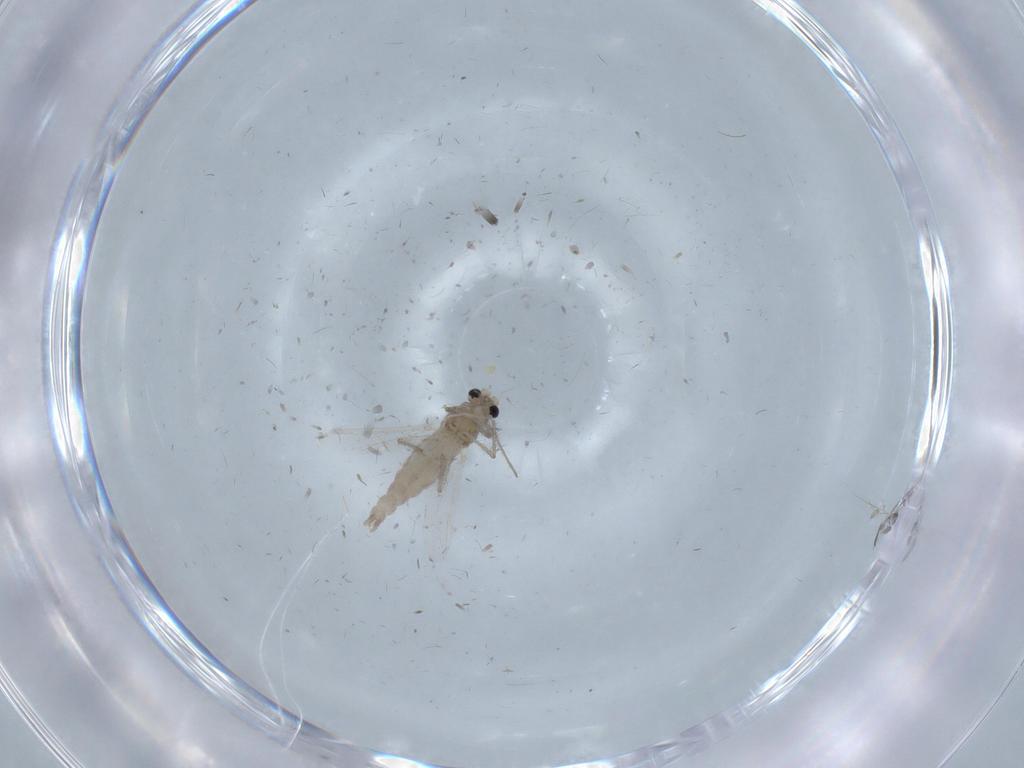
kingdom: Animalia
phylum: Arthropoda
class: Insecta
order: Diptera
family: Chironomidae
